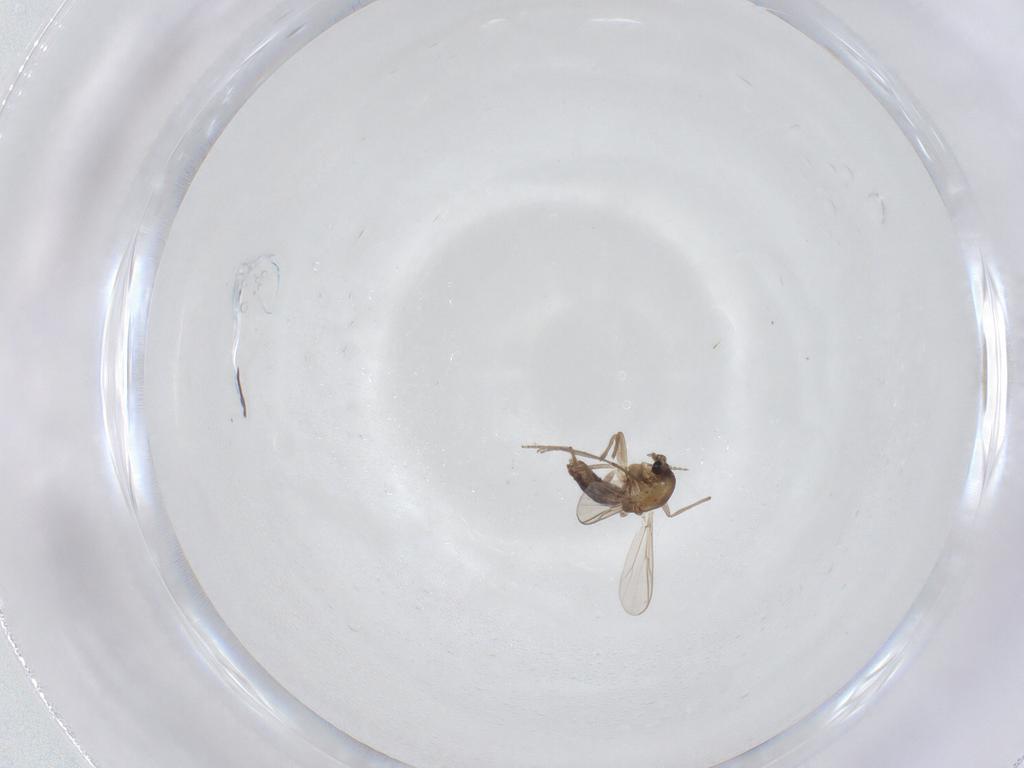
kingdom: Animalia
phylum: Arthropoda
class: Insecta
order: Diptera
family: Chironomidae
